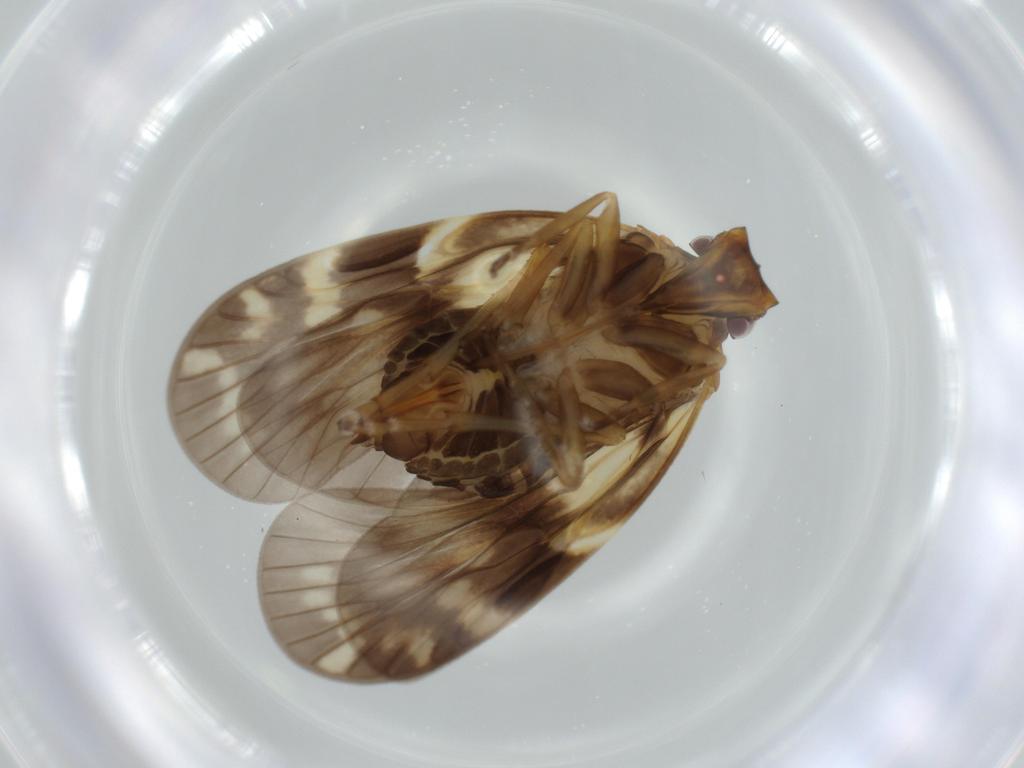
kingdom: Animalia
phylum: Arthropoda
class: Insecta
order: Hemiptera
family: Cixiidae
